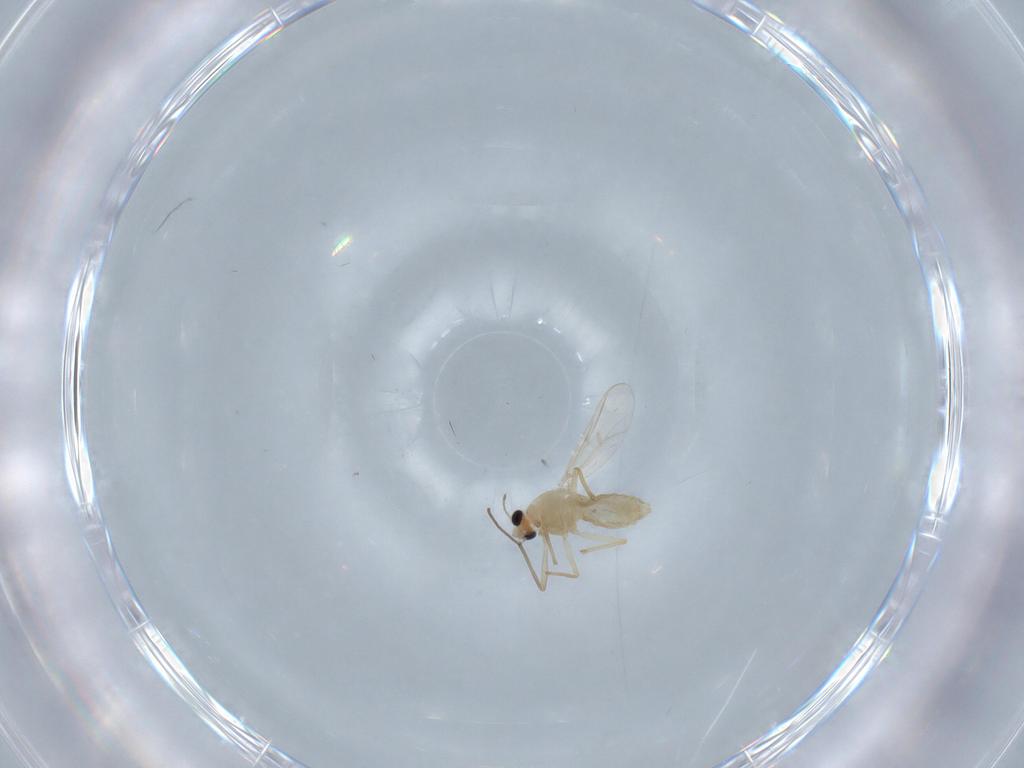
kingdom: Animalia
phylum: Arthropoda
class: Insecta
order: Diptera
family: Chironomidae
